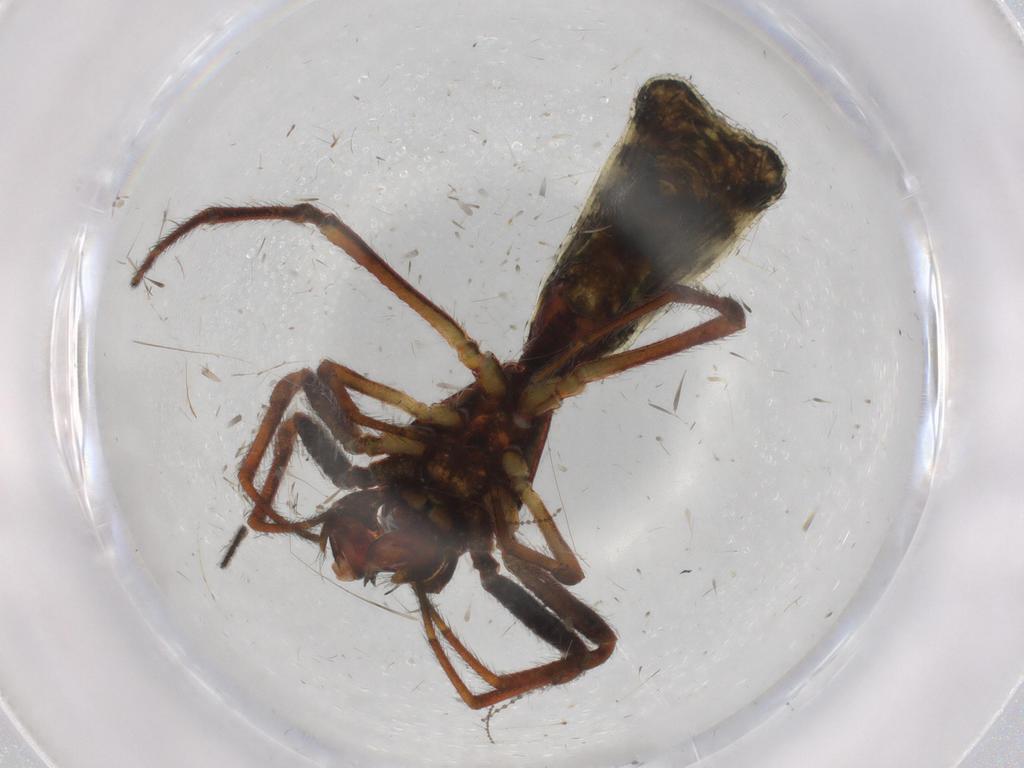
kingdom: Animalia
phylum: Arthropoda
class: Arachnida
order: Araneae
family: Araneidae
